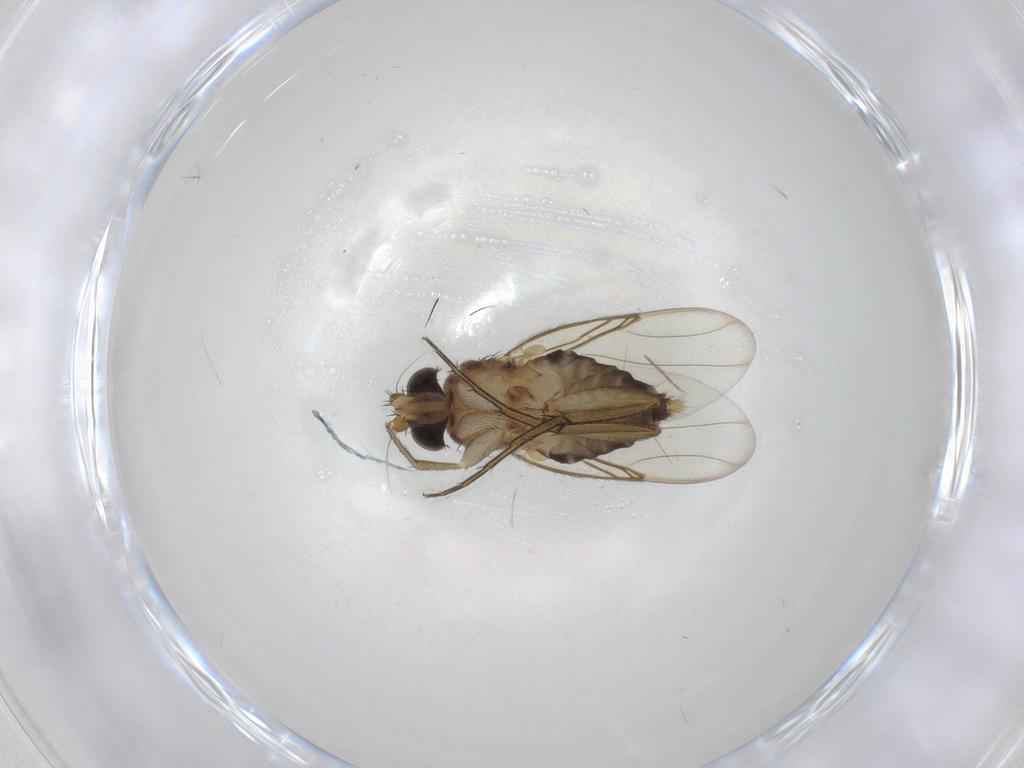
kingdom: Animalia
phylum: Arthropoda
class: Insecta
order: Diptera
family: Phoridae
